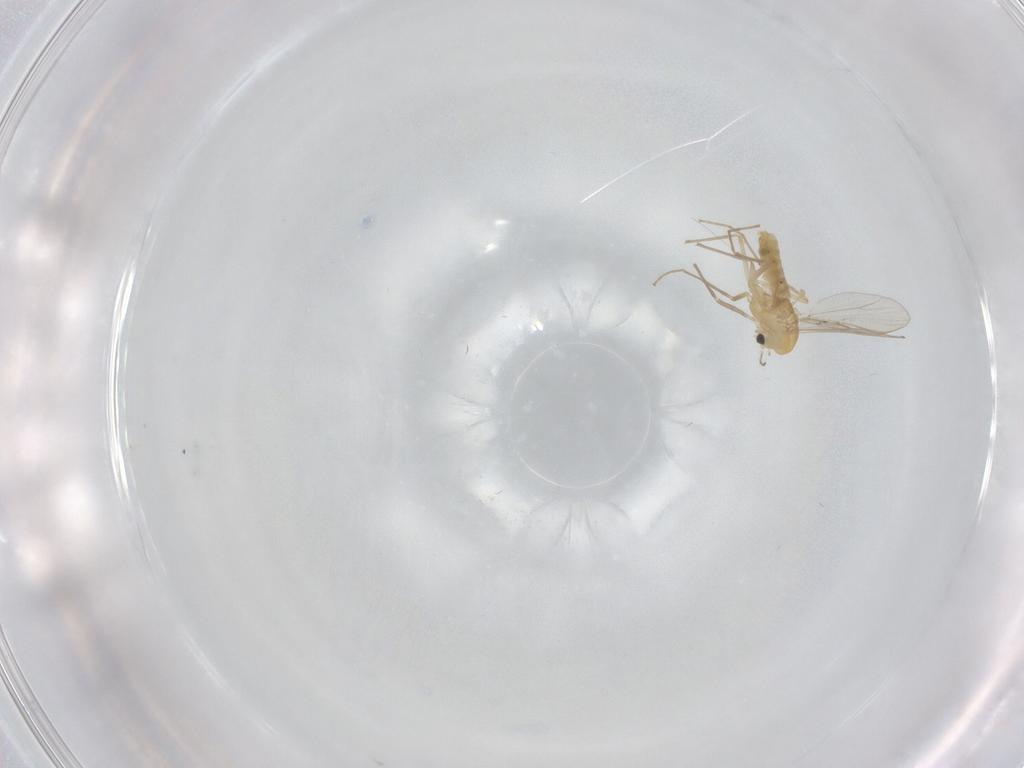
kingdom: Animalia
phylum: Arthropoda
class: Insecta
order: Diptera
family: Chironomidae
